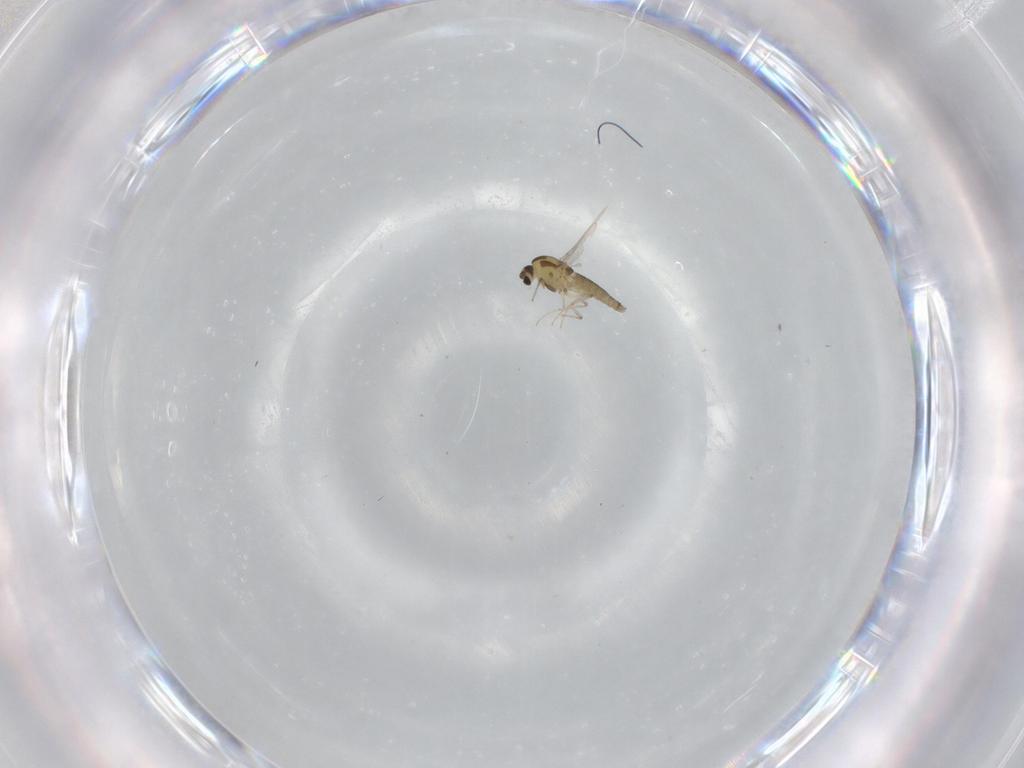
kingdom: Animalia
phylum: Arthropoda
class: Insecta
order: Diptera
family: Chironomidae
